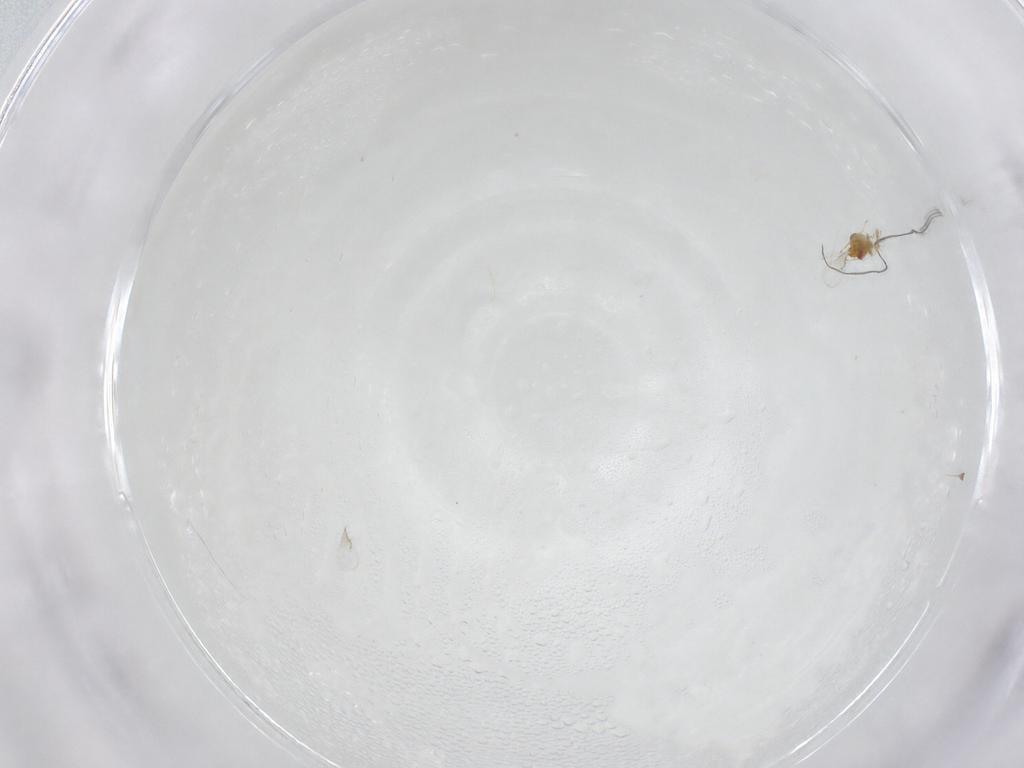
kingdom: Animalia
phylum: Arthropoda
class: Insecta
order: Hymenoptera
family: Trichogrammatidae
